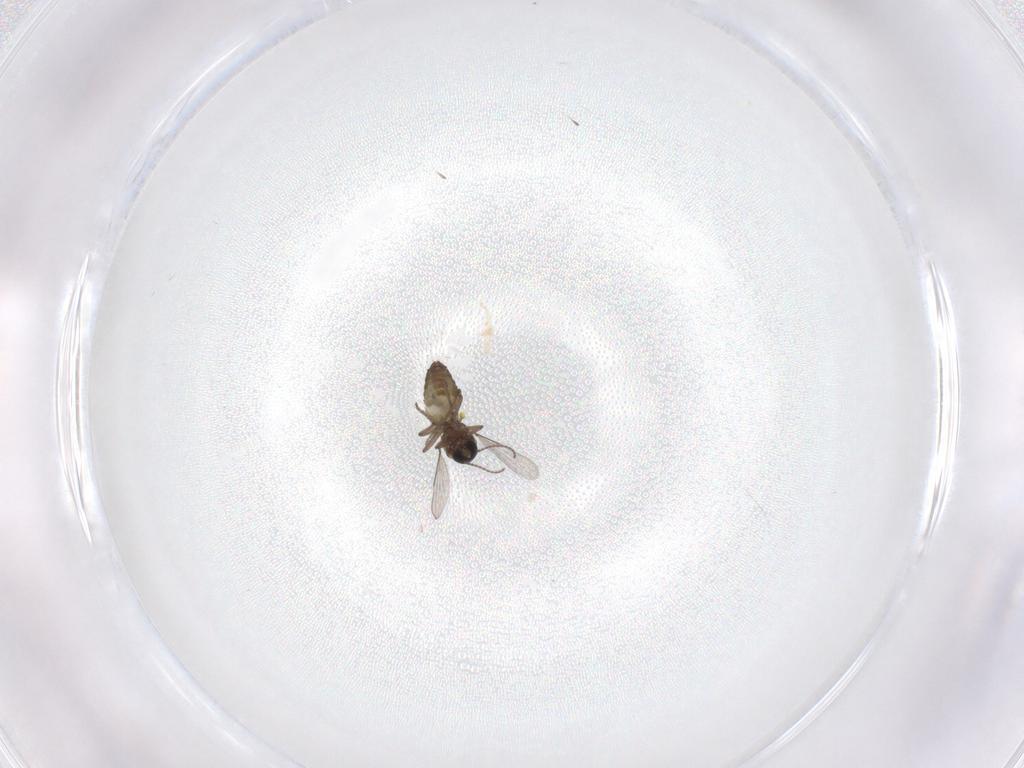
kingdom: Animalia
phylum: Arthropoda
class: Insecta
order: Diptera
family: Ceratopogonidae
